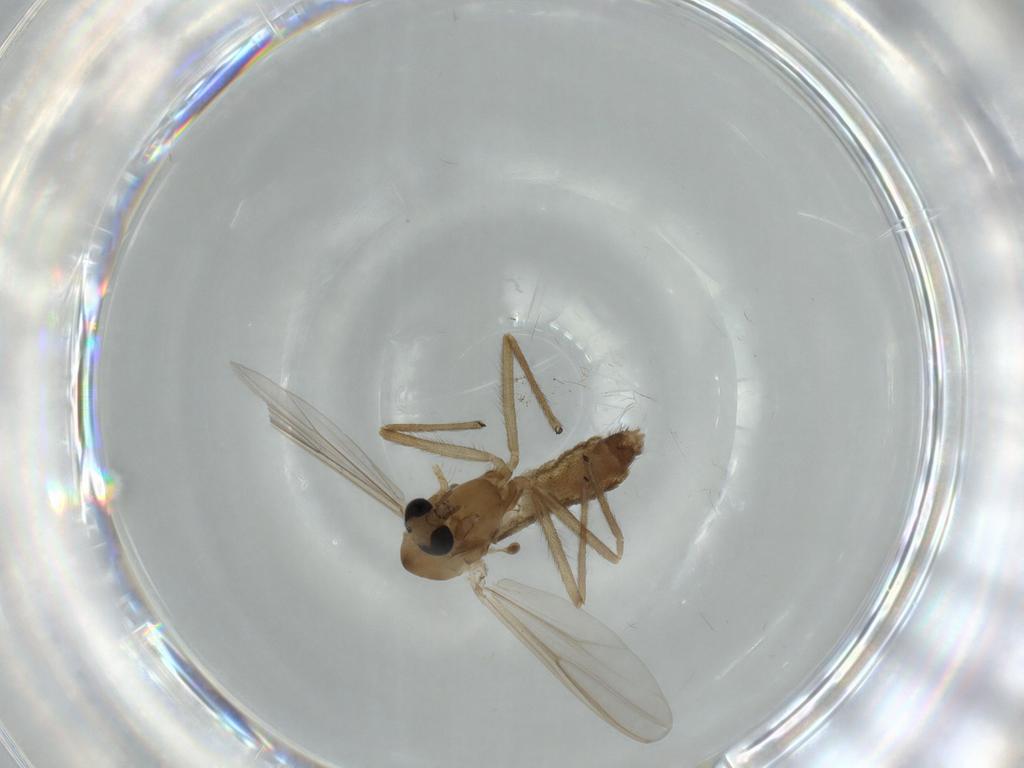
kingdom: Animalia
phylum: Arthropoda
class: Insecta
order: Diptera
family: Chironomidae
